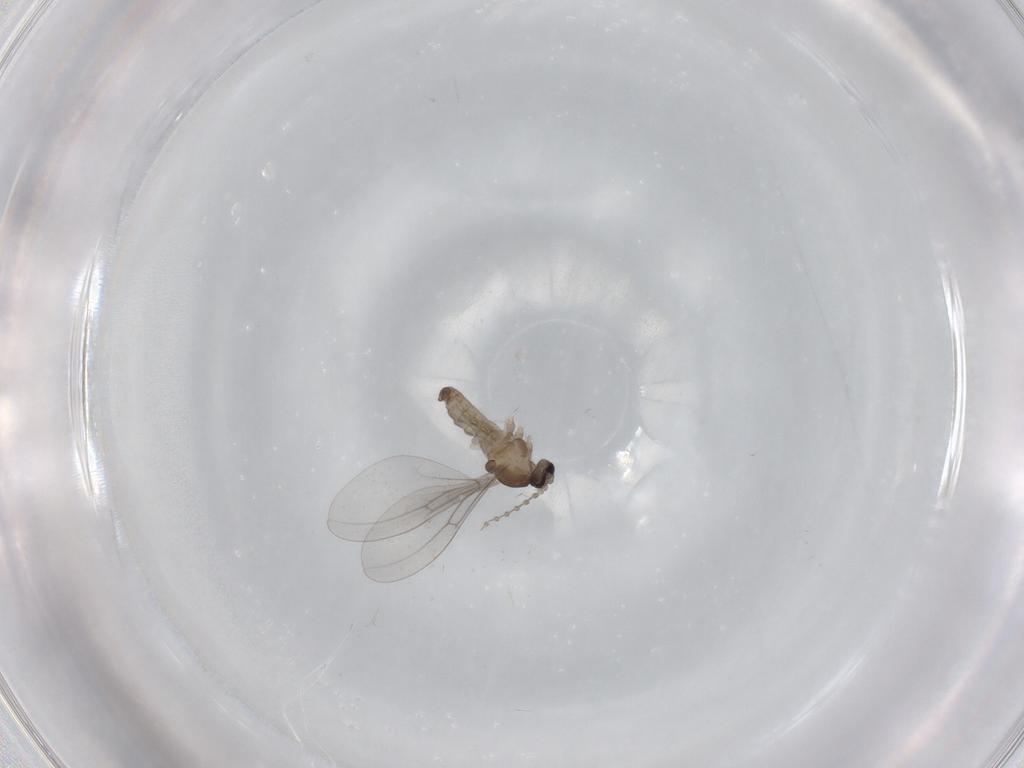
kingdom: Animalia
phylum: Arthropoda
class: Insecta
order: Diptera
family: Cecidomyiidae
